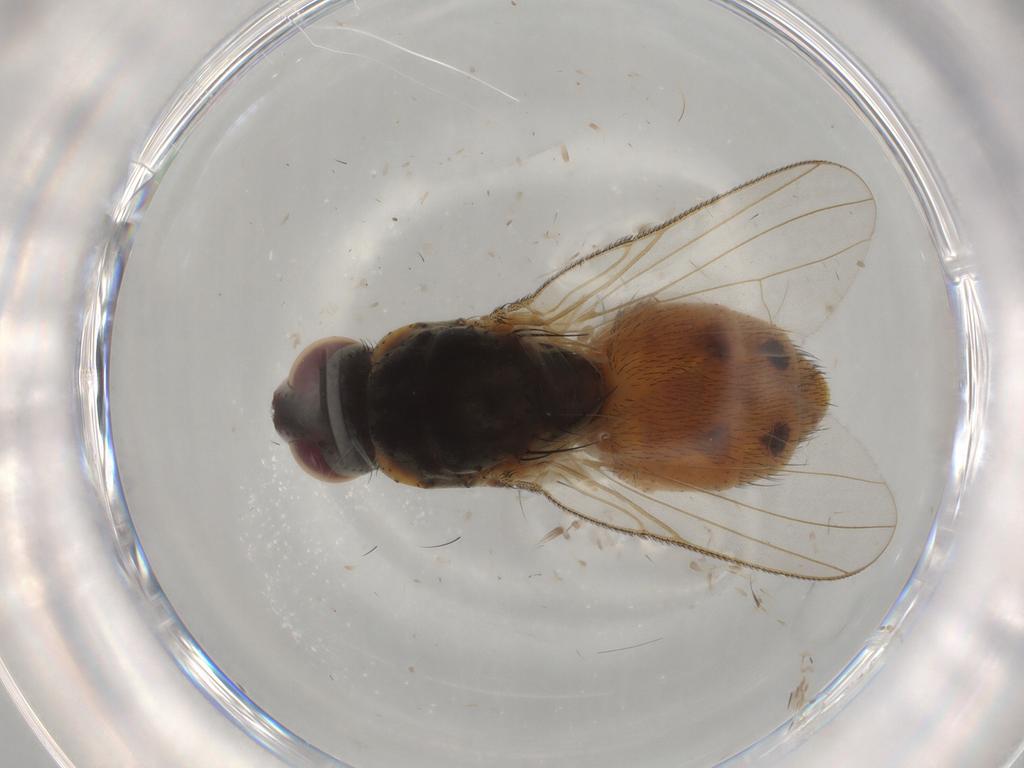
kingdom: Animalia
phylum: Arthropoda
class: Insecta
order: Diptera
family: Muscidae
